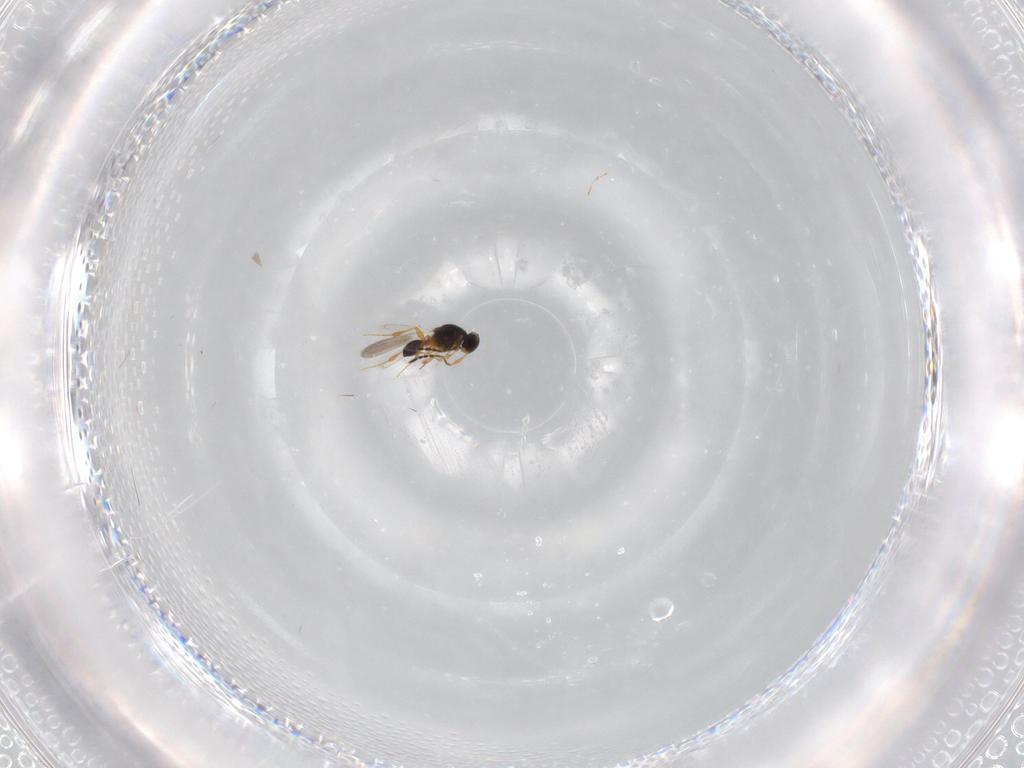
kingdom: Animalia
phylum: Arthropoda
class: Insecta
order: Hymenoptera
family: Platygastridae
